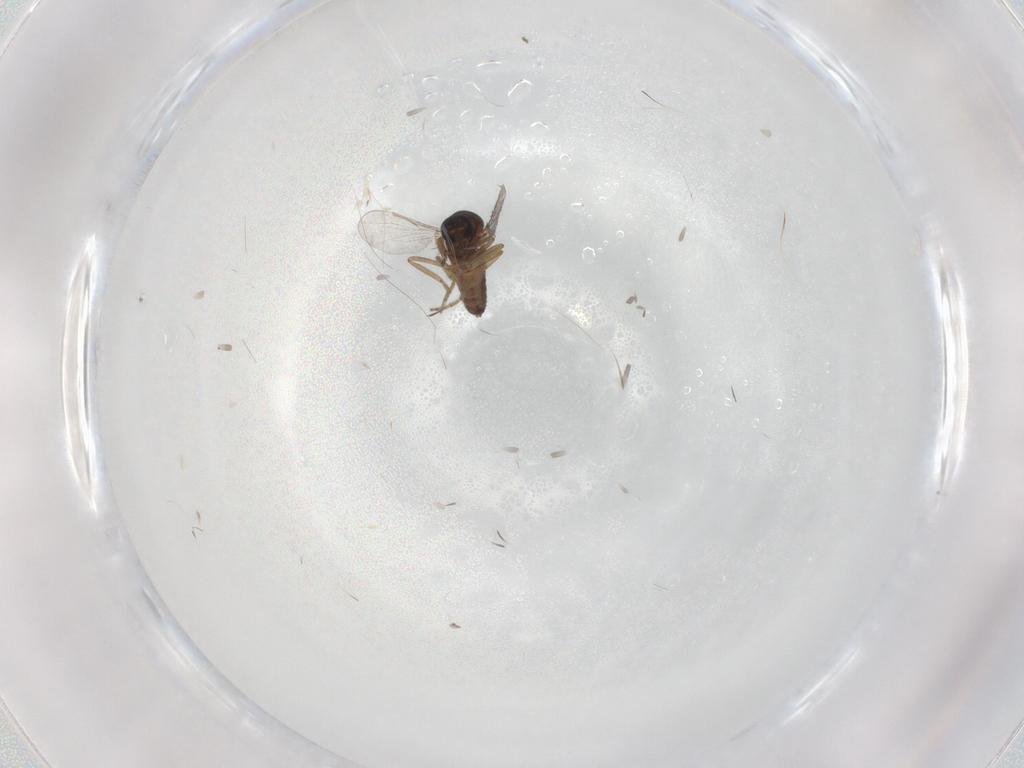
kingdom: Animalia
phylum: Arthropoda
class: Insecta
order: Diptera
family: Ceratopogonidae
